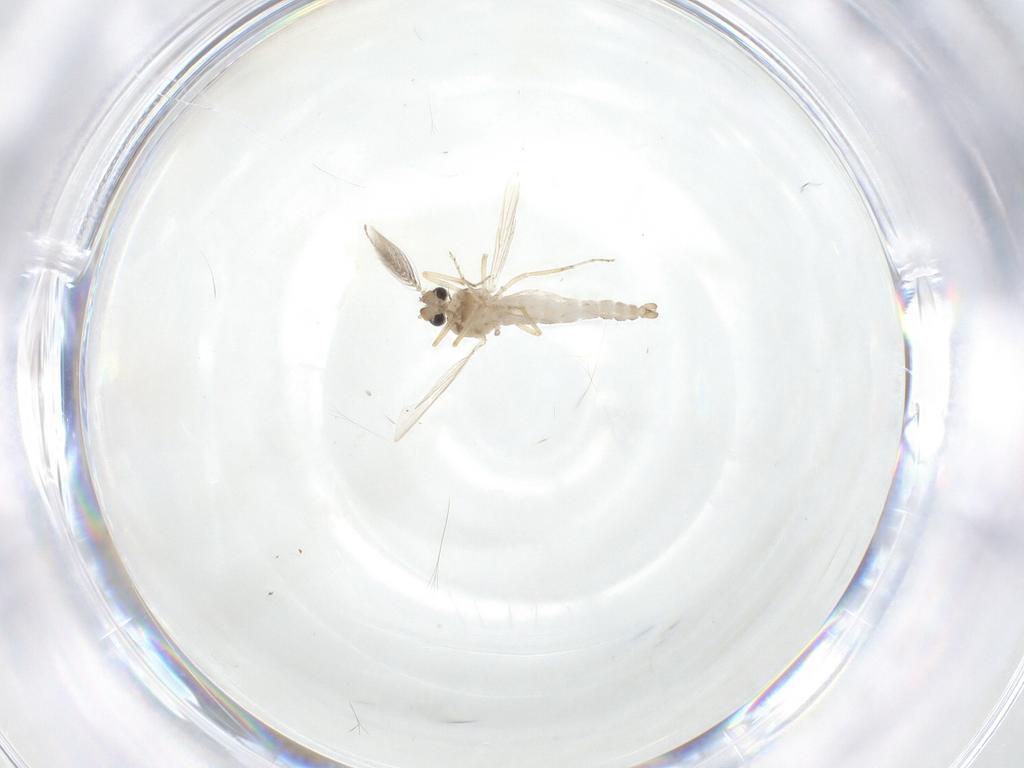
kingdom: Animalia
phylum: Arthropoda
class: Insecta
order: Diptera
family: Ceratopogonidae
